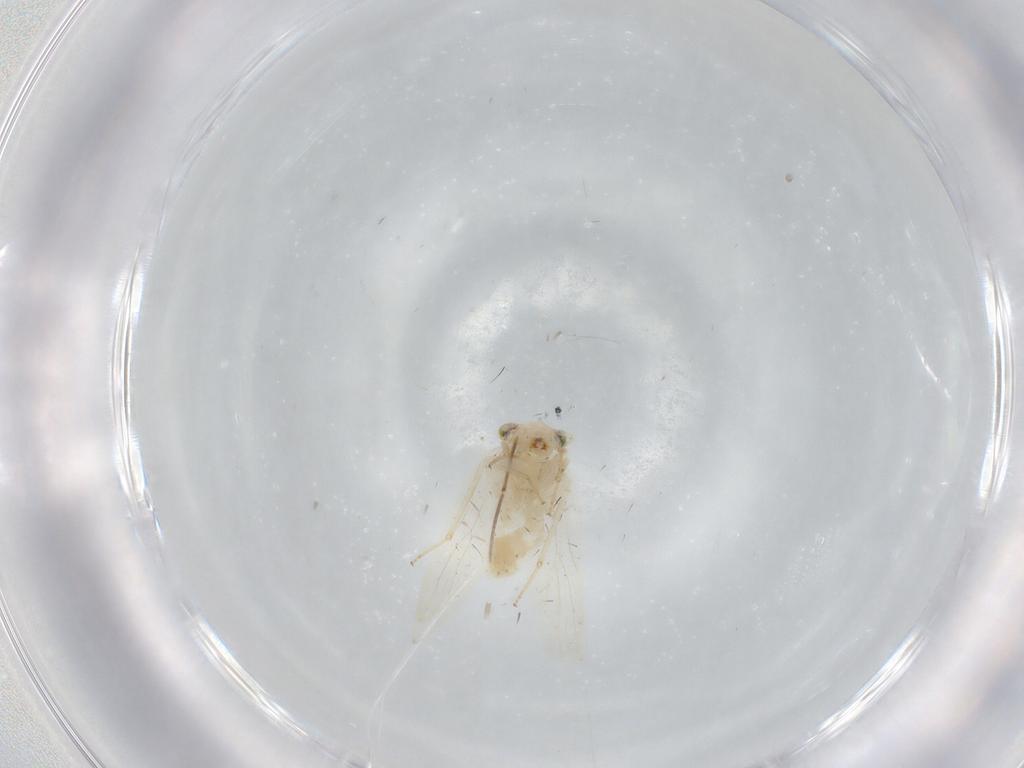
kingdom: Animalia
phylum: Arthropoda
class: Insecta
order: Psocodea
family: Lepidopsocidae
